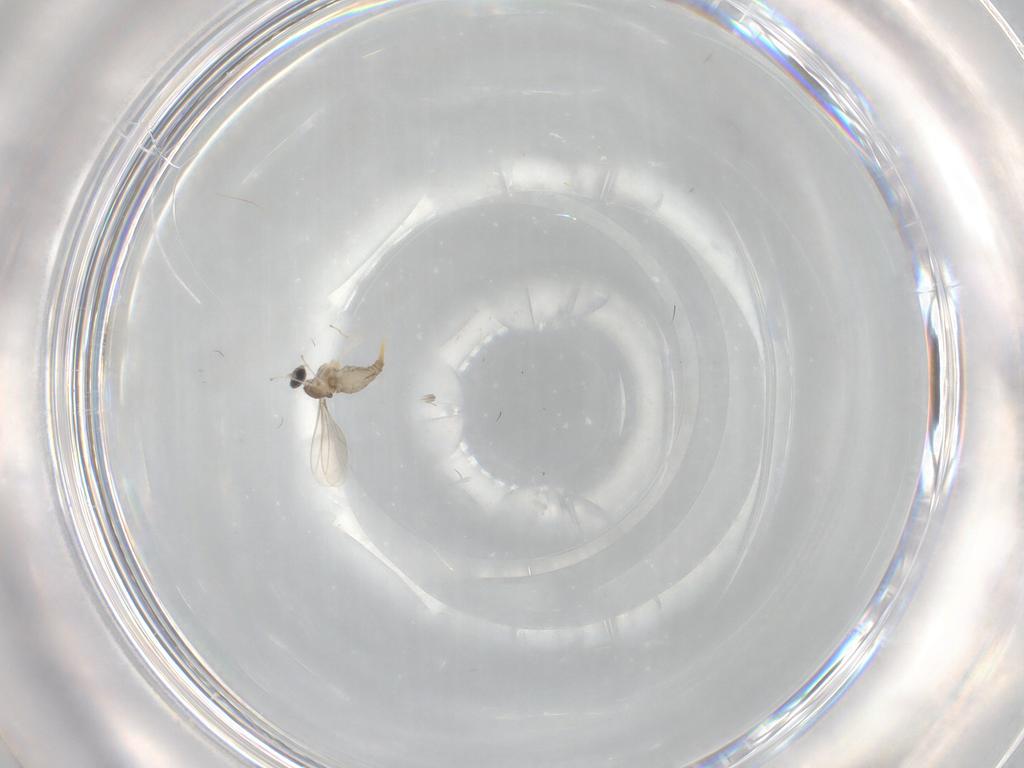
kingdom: Animalia
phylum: Arthropoda
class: Insecta
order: Diptera
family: Cecidomyiidae
